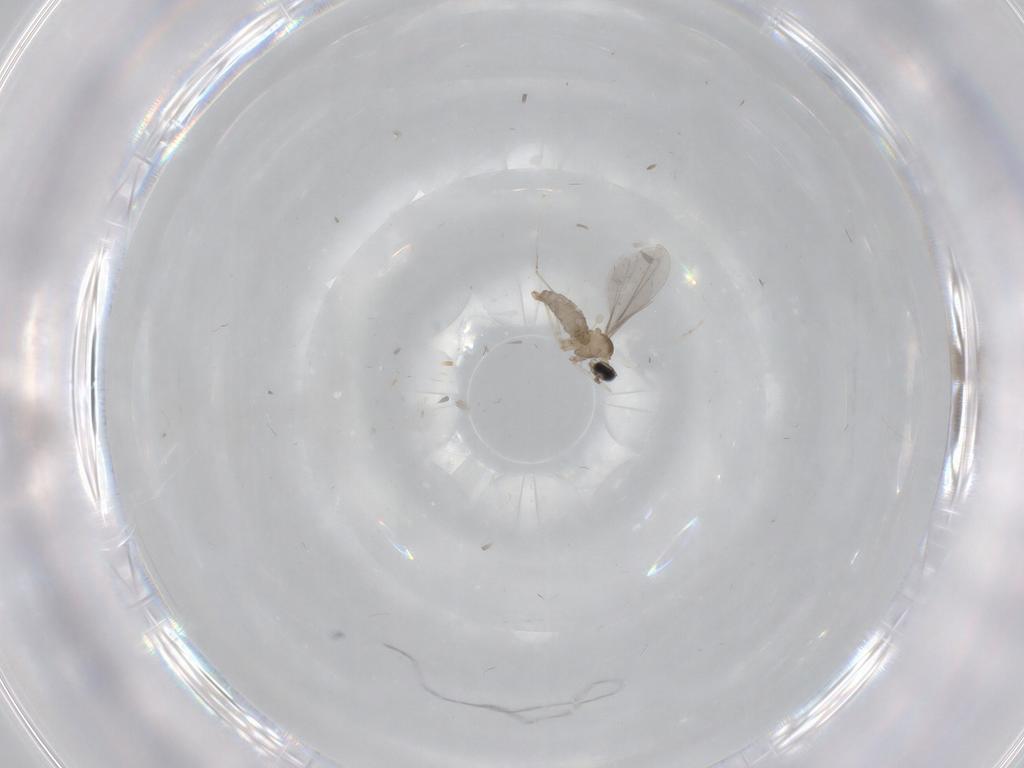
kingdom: Animalia
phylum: Arthropoda
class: Insecta
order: Diptera
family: Cecidomyiidae
